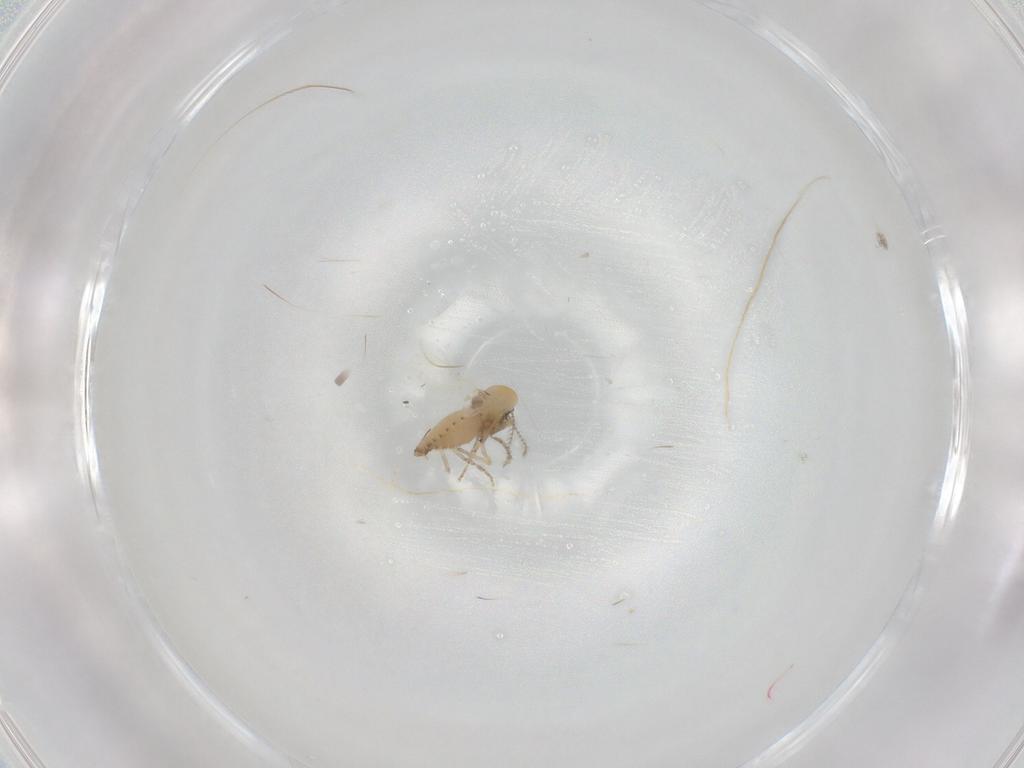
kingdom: Animalia
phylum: Arthropoda
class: Insecta
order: Diptera
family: Ceratopogonidae
